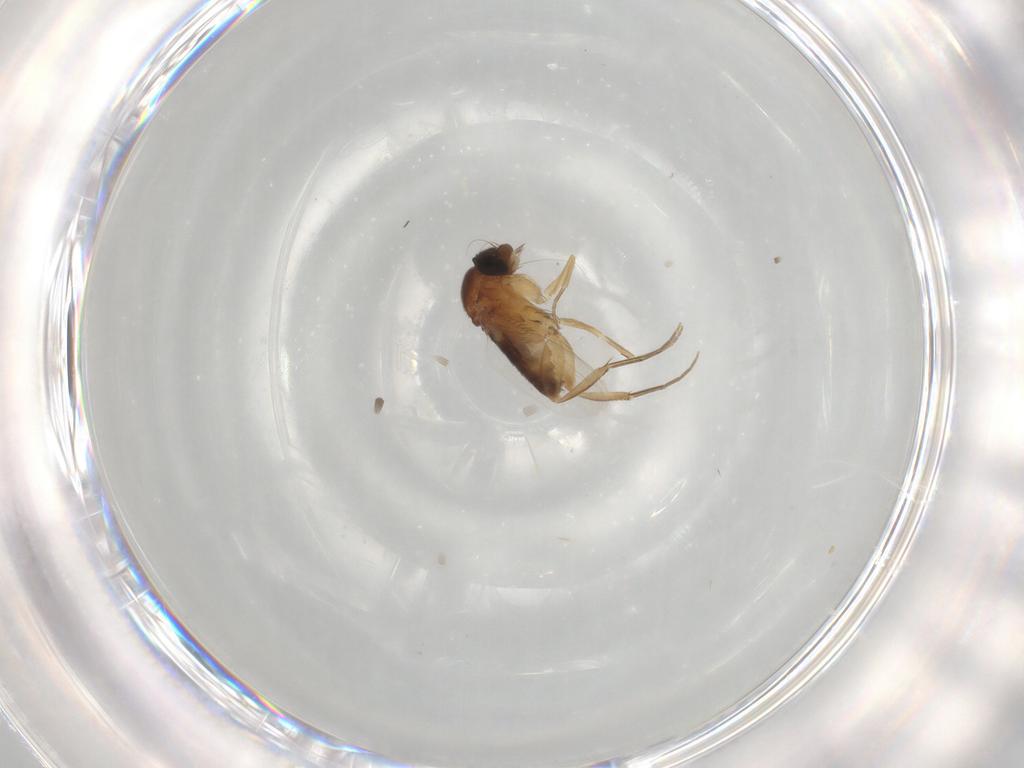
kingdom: Animalia
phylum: Arthropoda
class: Insecta
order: Diptera
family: Phoridae
